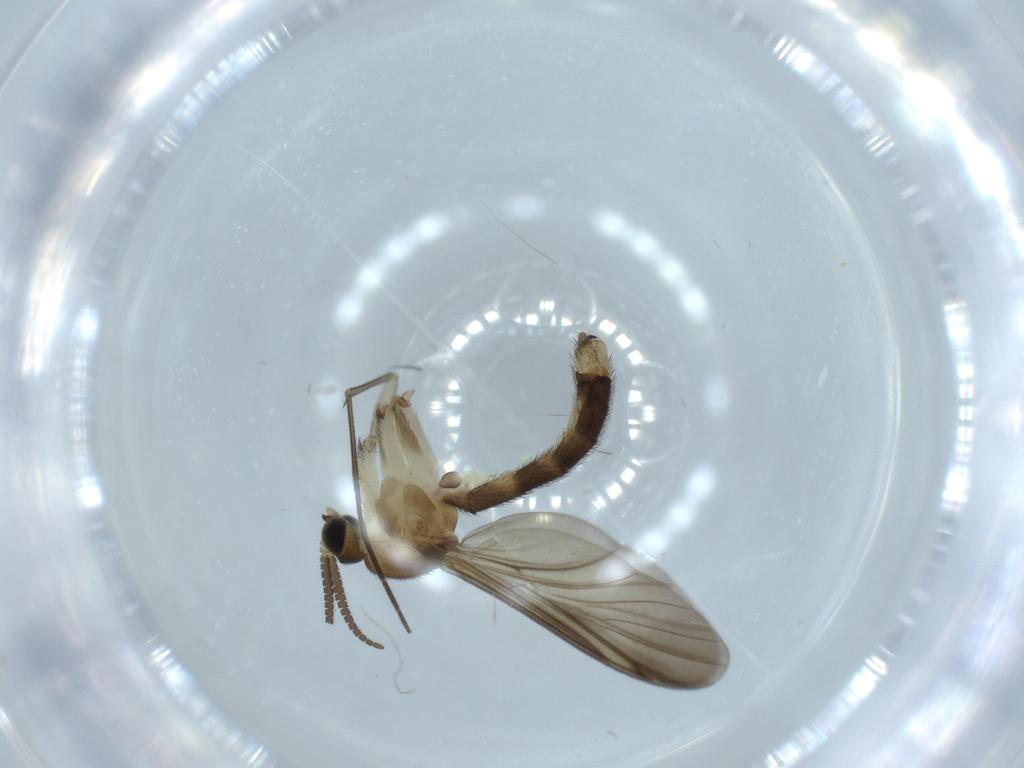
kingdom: Animalia
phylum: Arthropoda
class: Insecta
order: Diptera
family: Mycetophilidae
